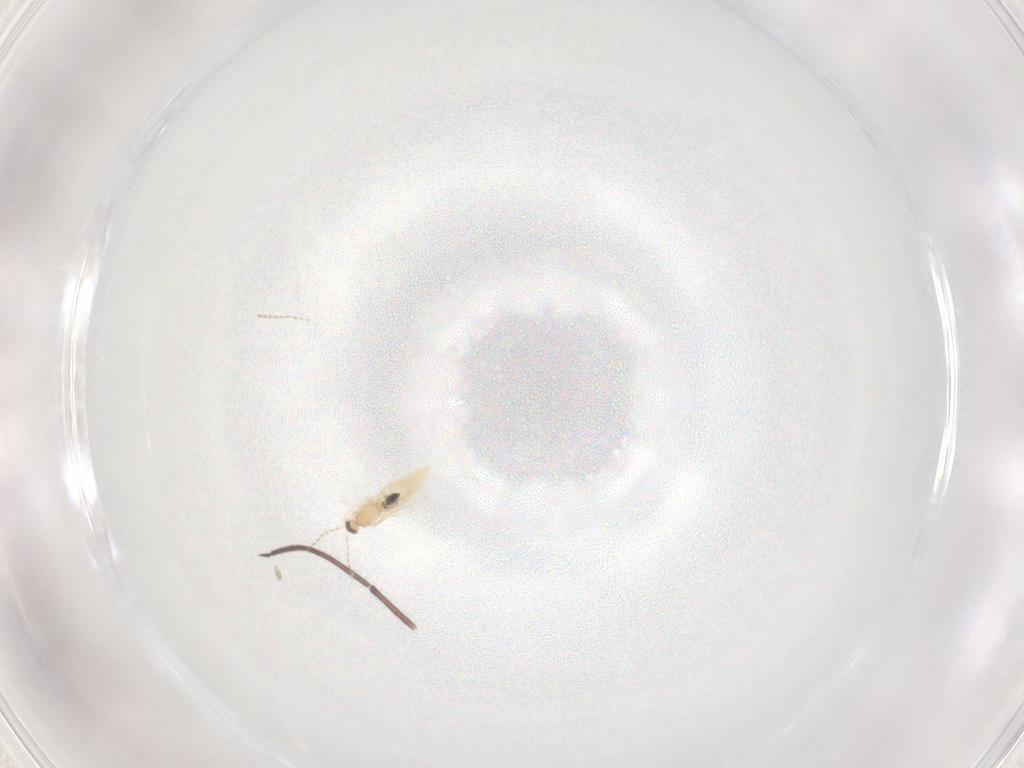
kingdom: Animalia
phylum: Arthropoda
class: Insecta
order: Diptera
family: Cecidomyiidae
